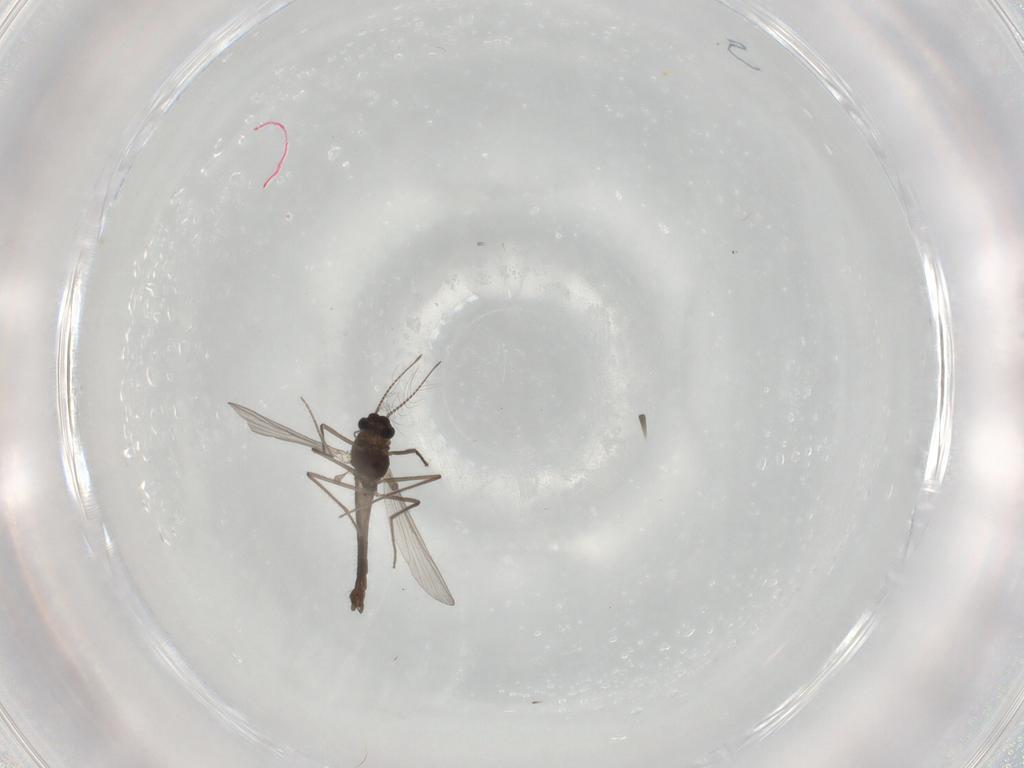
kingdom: Animalia
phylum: Arthropoda
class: Insecta
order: Diptera
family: Chironomidae
